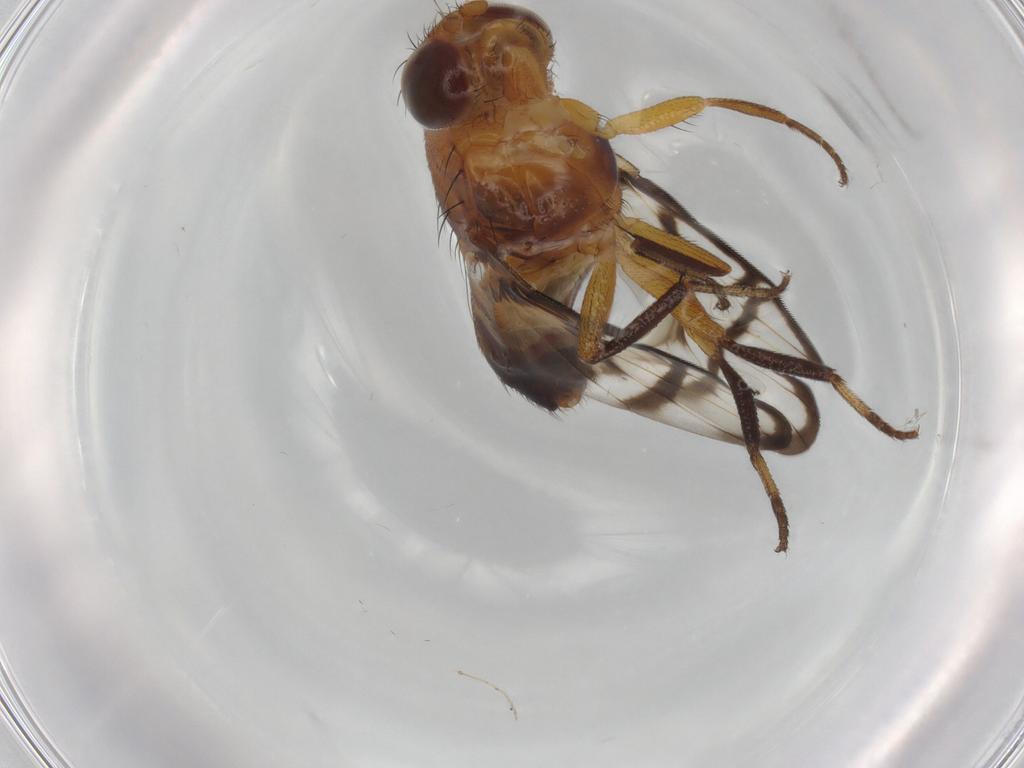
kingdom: Animalia
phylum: Arthropoda
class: Insecta
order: Diptera
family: Ulidiidae
